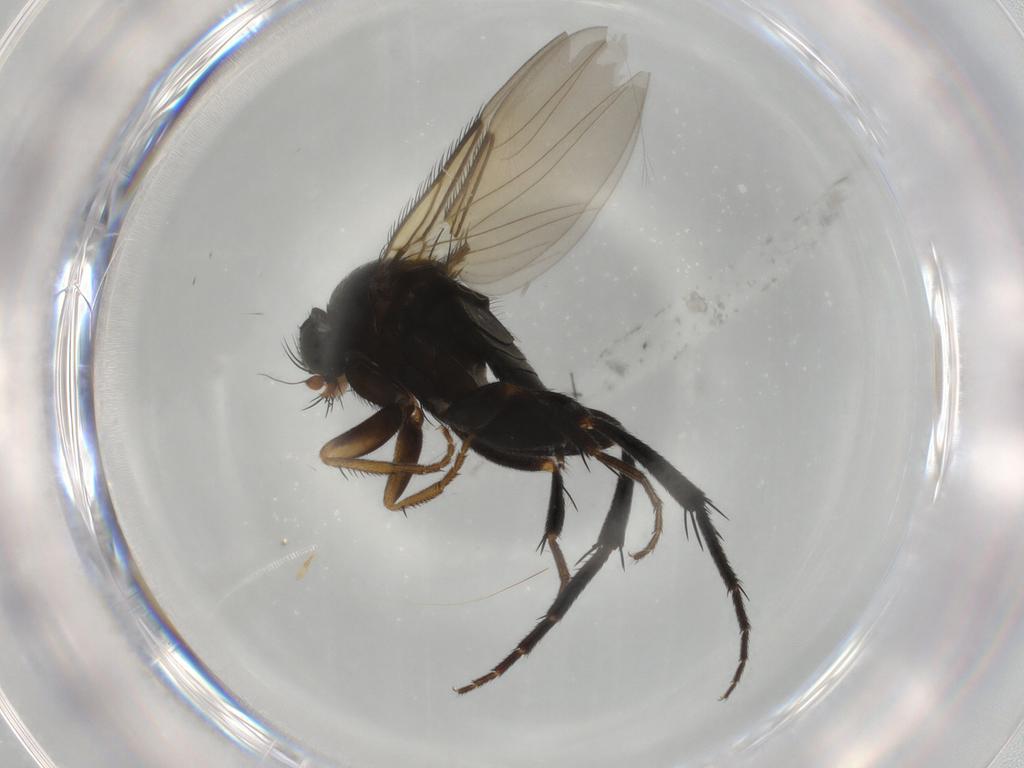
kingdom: Animalia
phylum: Arthropoda
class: Insecta
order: Diptera
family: Phoridae
